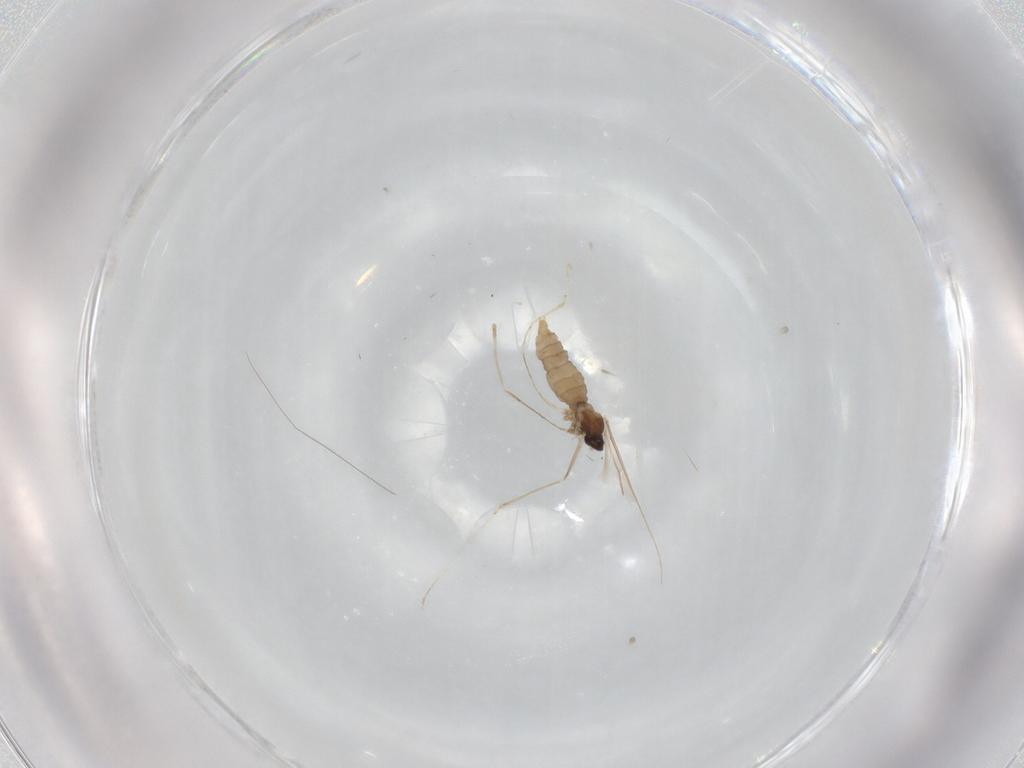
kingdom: Animalia
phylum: Arthropoda
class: Insecta
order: Diptera
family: Cecidomyiidae
